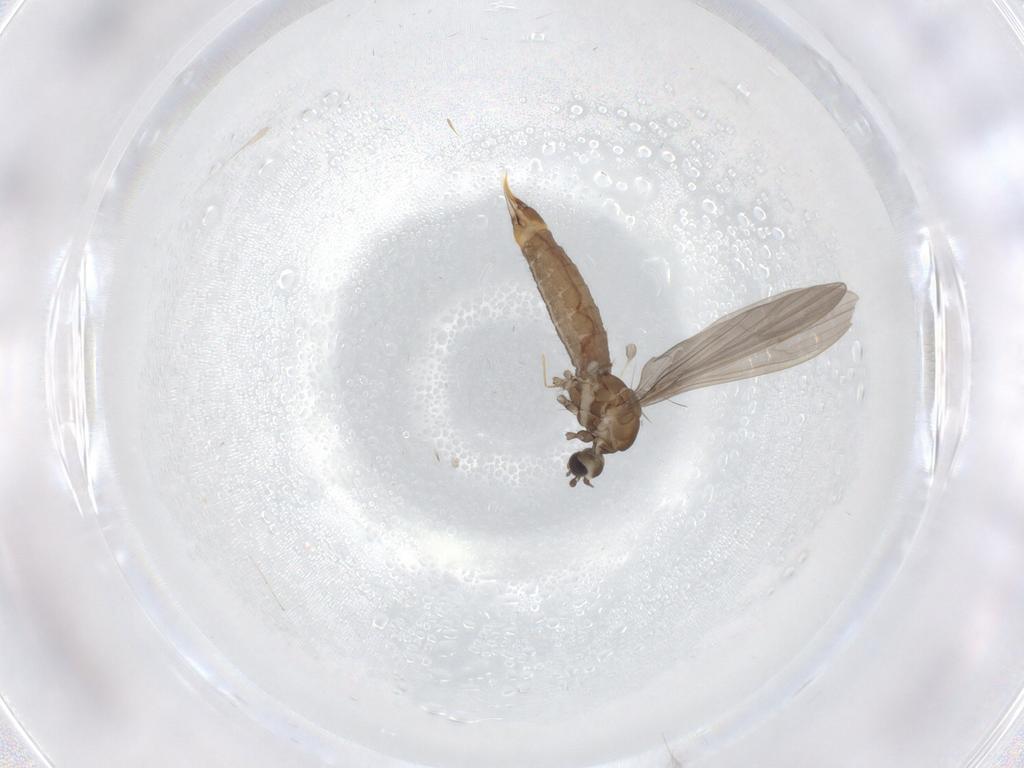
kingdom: Animalia
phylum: Arthropoda
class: Insecta
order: Diptera
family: Limoniidae
